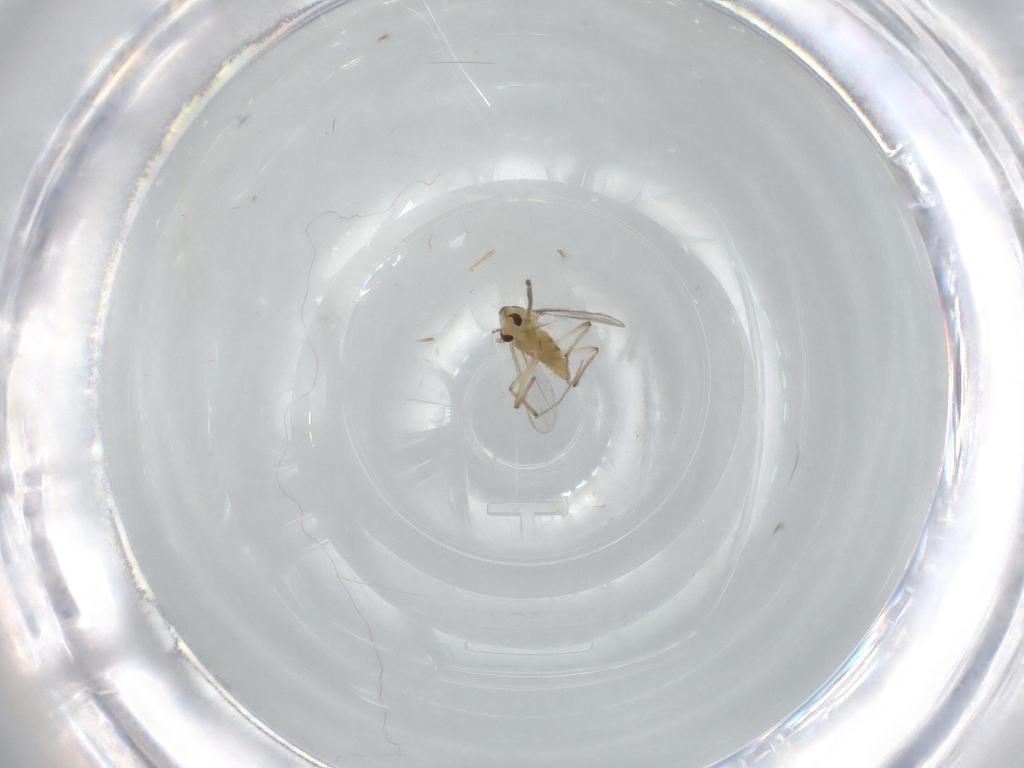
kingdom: Animalia
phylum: Arthropoda
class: Insecta
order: Diptera
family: Chironomidae
